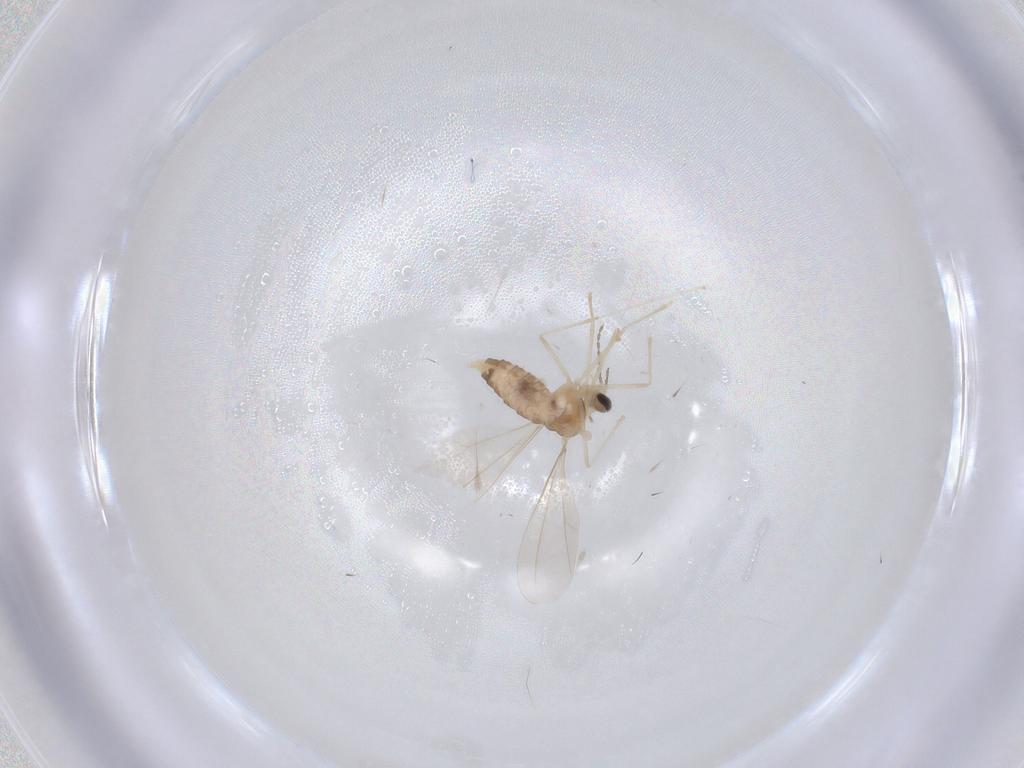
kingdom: Animalia
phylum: Arthropoda
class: Insecta
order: Diptera
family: Cecidomyiidae
